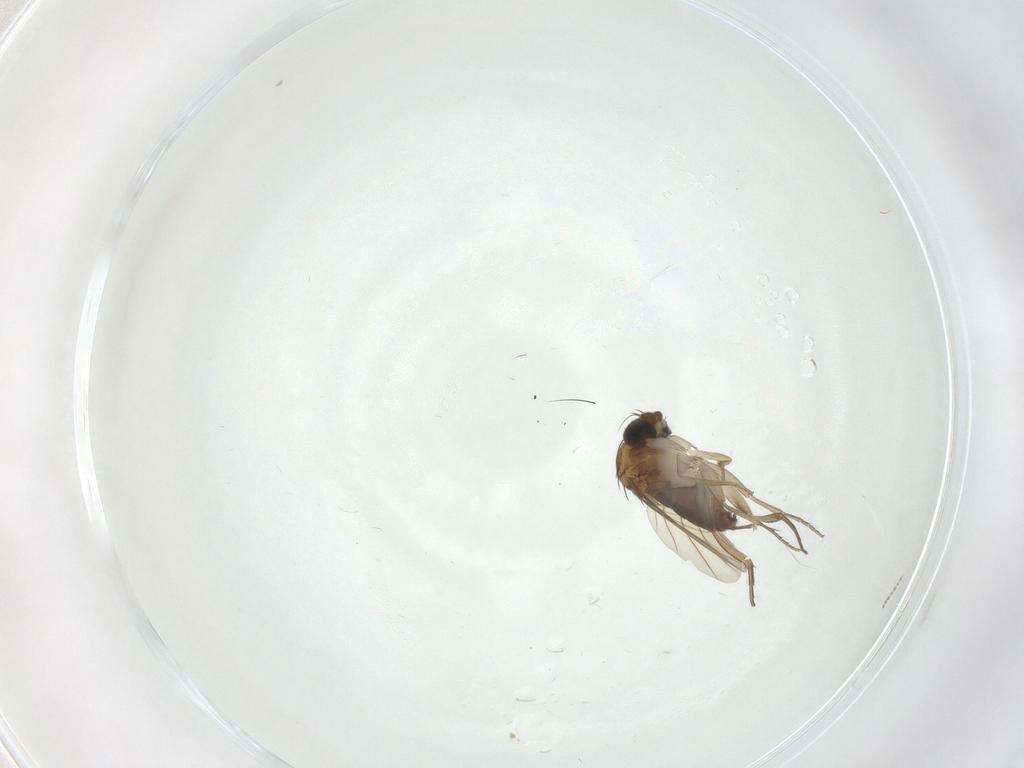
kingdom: Animalia
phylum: Arthropoda
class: Insecta
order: Diptera
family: Phoridae
